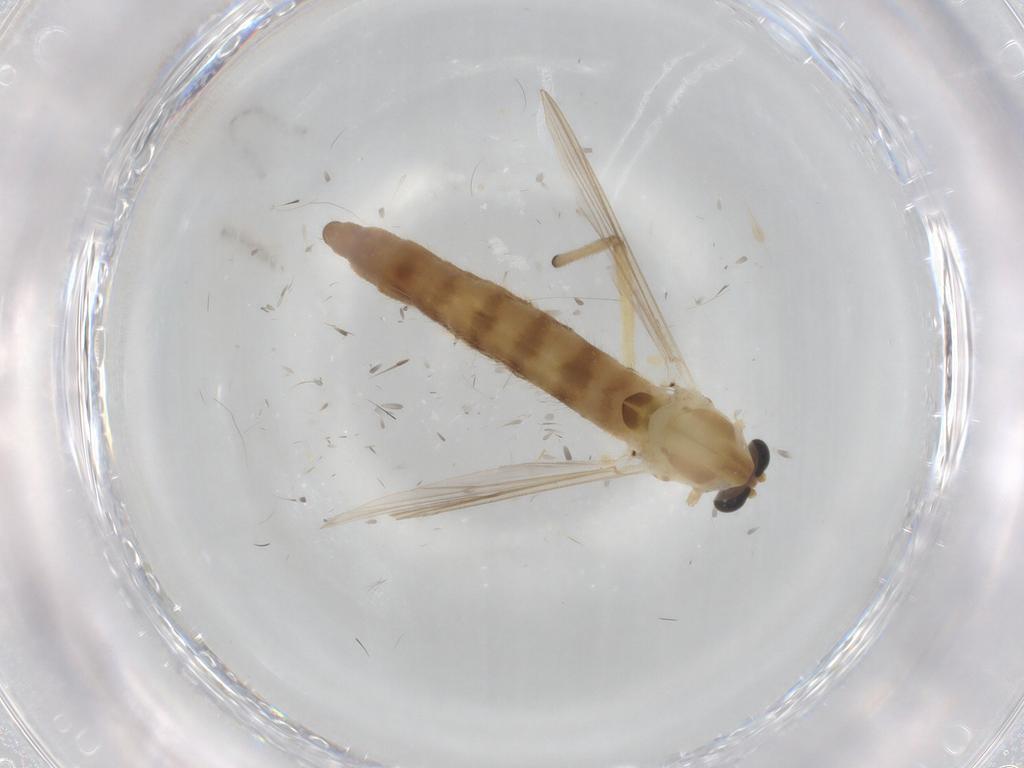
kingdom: Animalia
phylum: Arthropoda
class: Insecta
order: Diptera
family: Chironomidae
